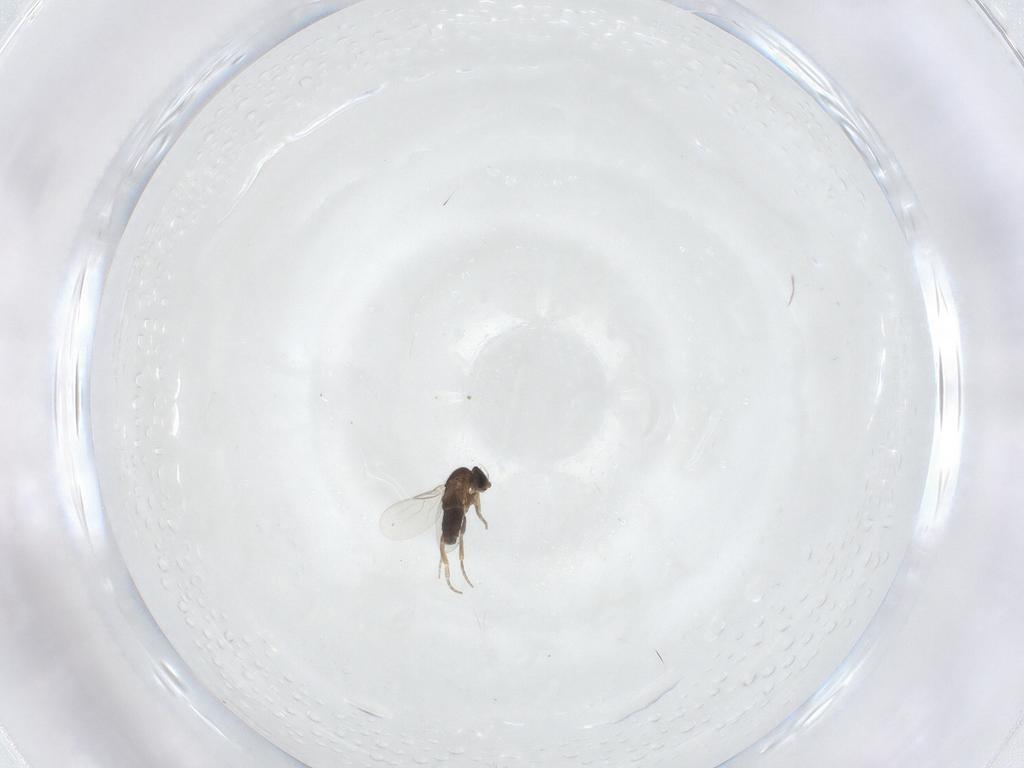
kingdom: Animalia
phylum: Arthropoda
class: Insecta
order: Diptera
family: Phoridae
